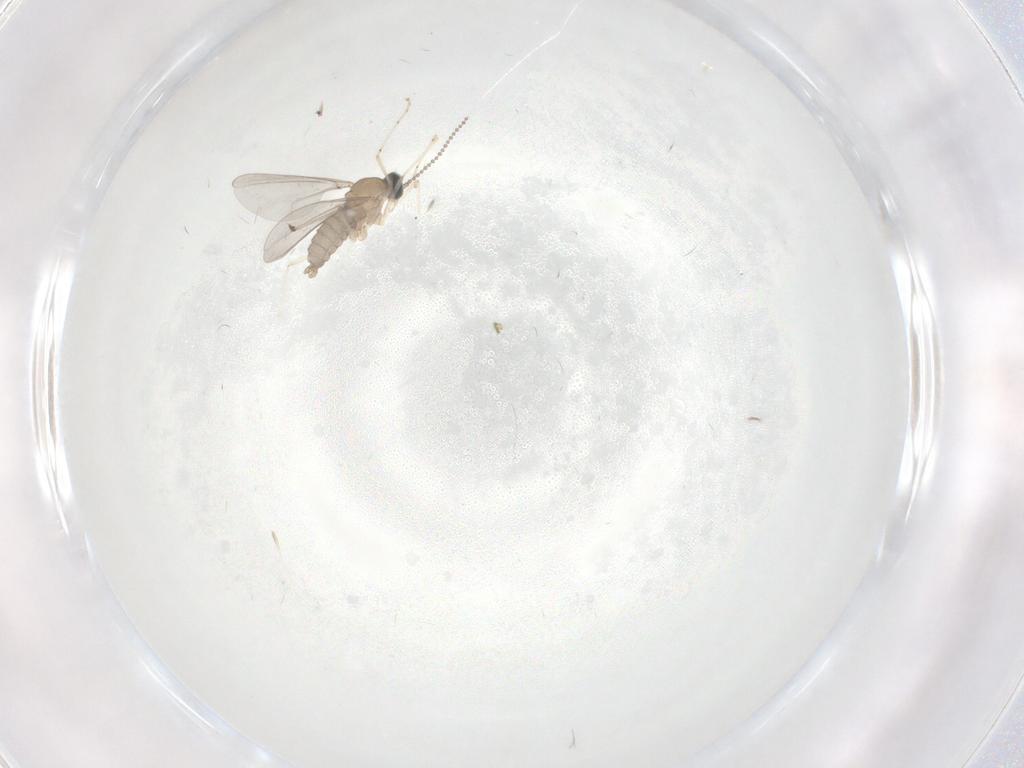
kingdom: Animalia
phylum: Arthropoda
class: Insecta
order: Diptera
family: Cecidomyiidae
